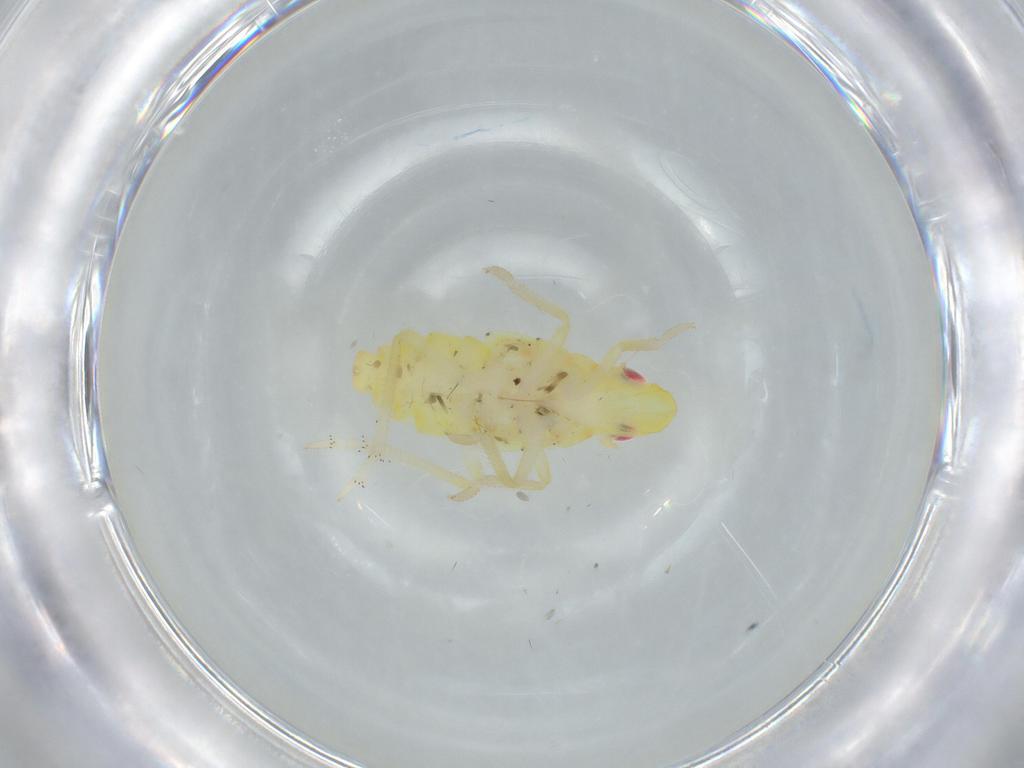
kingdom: Animalia
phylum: Arthropoda
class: Insecta
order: Hemiptera
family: Tropiduchidae
